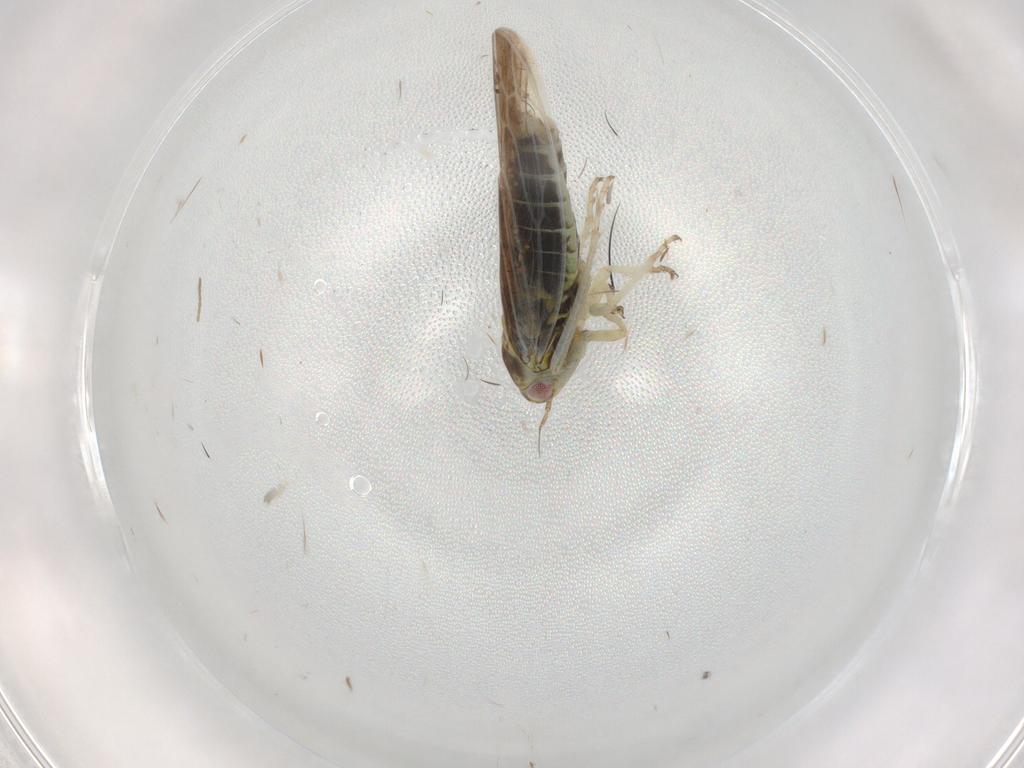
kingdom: Animalia
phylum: Arthropoda
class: Insecta
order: Hemiptera
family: Cicadellidae
